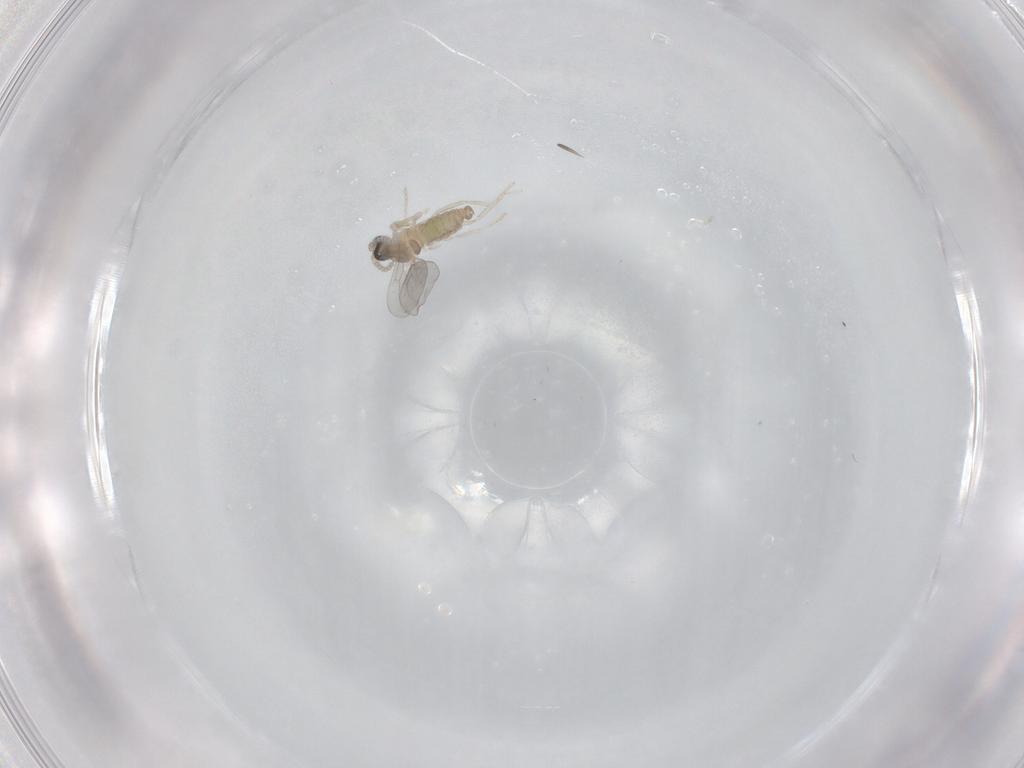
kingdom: Animalia
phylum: Arthropoda
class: Insecta
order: Diptera
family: Cecidomyiidae
